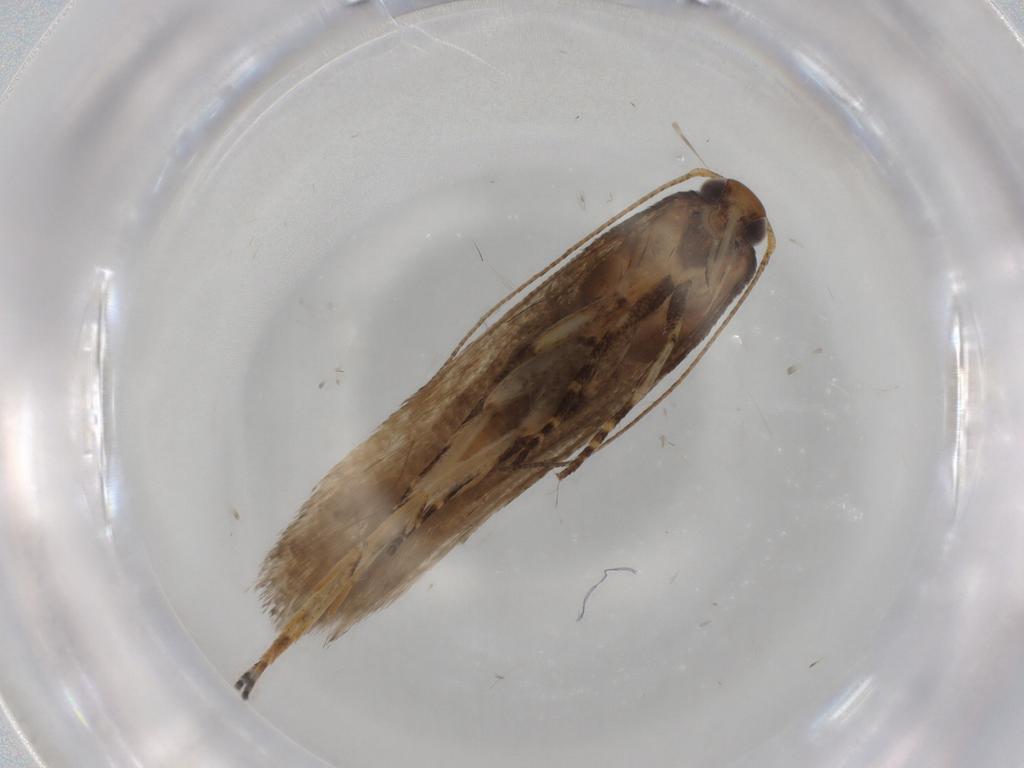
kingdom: Animalia
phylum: Arthropoda
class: Insecta
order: Lepidoptera
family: Gelechiidae
